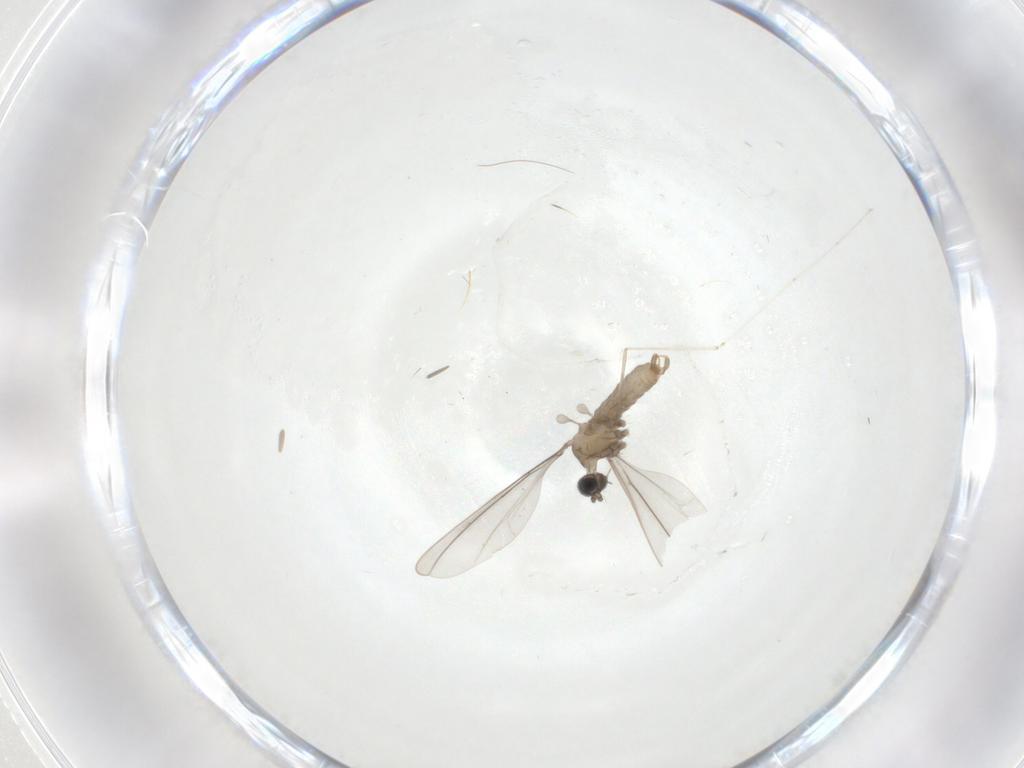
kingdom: Animalia
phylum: Arthropoda
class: Insecta
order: Diptera
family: Cecidomyiidae
